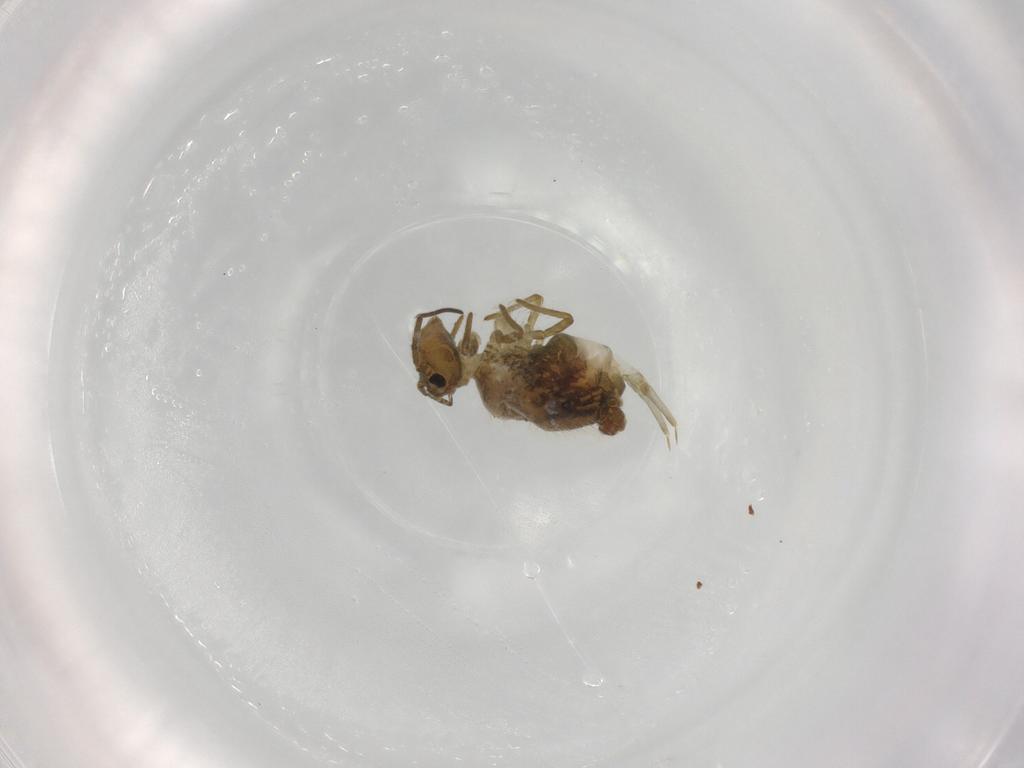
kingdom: Animalia
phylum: Arthropoda
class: Collembola
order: Symphypleona
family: Sminthuridae
